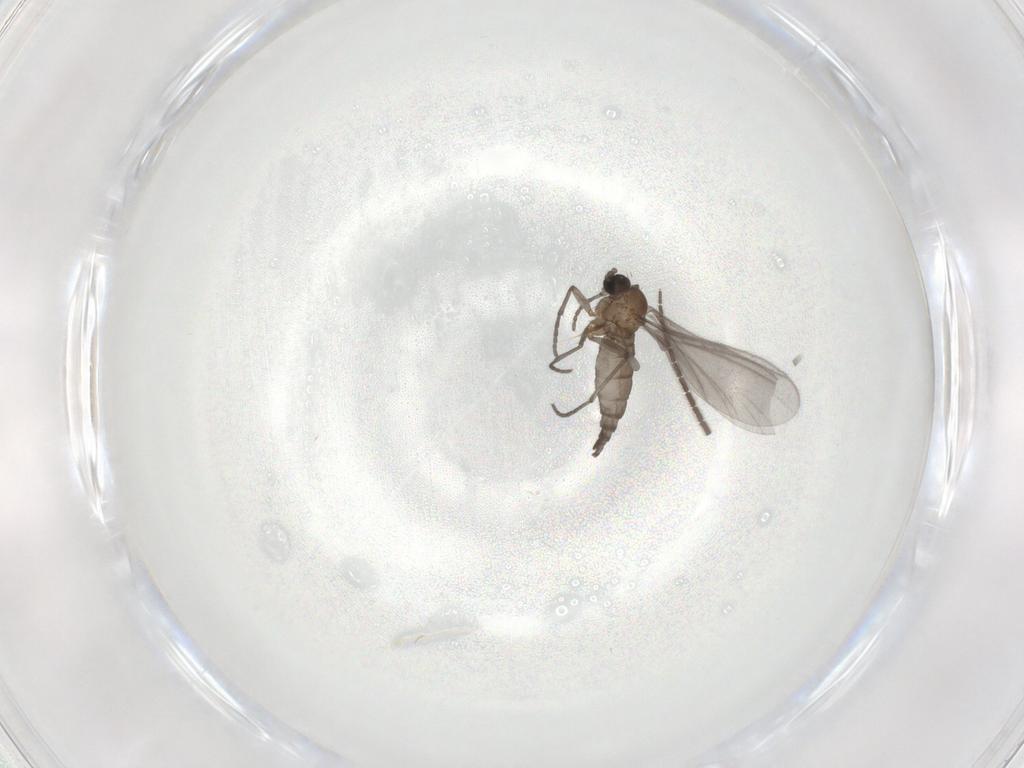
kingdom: Animalia
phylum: Arthropoda
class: Insecta
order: Diptera
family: Sciaridae
